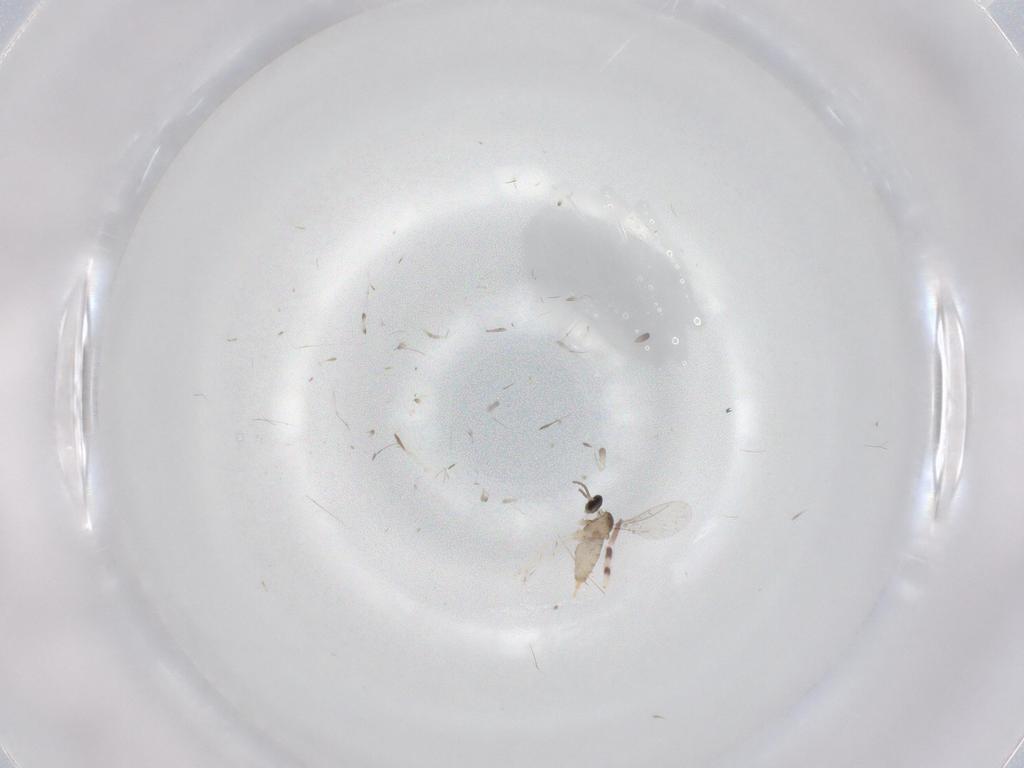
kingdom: Animalia
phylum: Arthropoda
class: Insecta
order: Diptera
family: Cecidomyiidae
